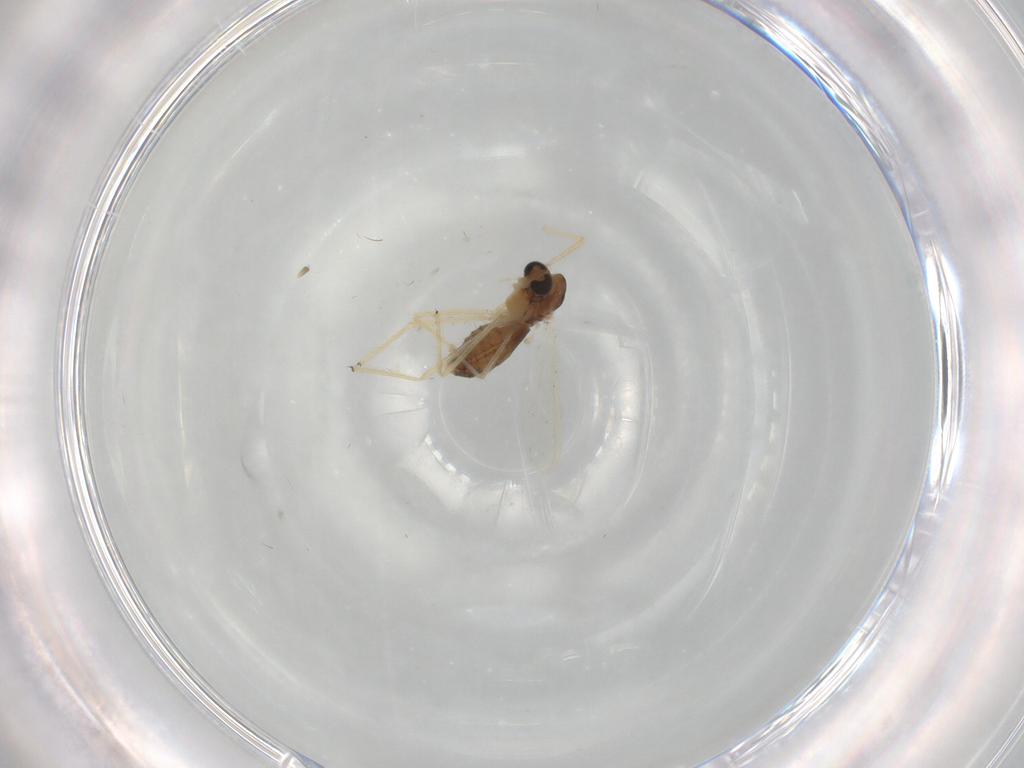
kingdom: Animalia
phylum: Arthropoda
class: Insecta
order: Diptera
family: Chironomidae
